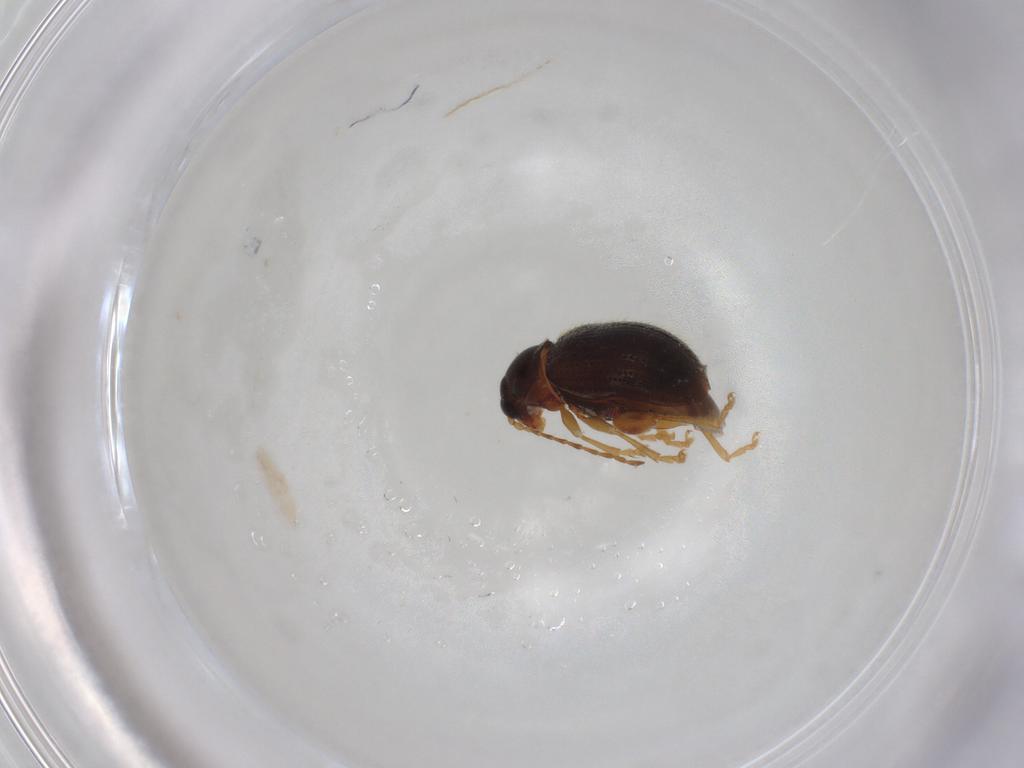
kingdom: Animalia
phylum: Arthropoda
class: Insecta
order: Coleoptera
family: Chrysomelidae
